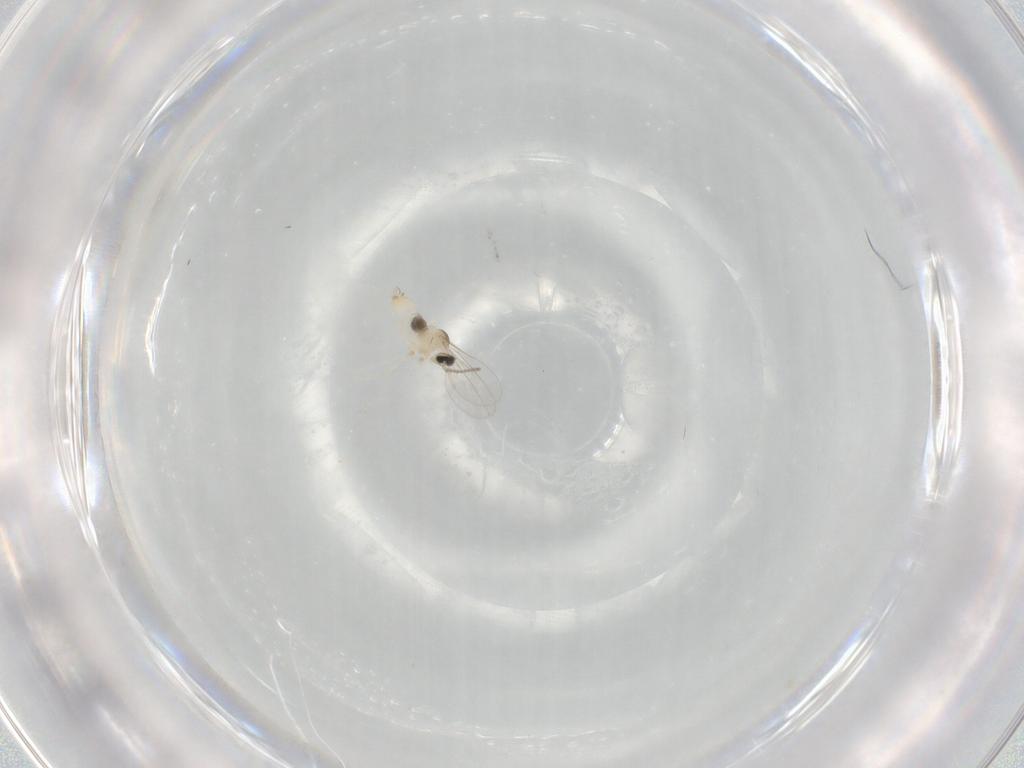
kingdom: Animalia
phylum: Arthropoda
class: Insecta
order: Diptera
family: Cecidomyiidae
